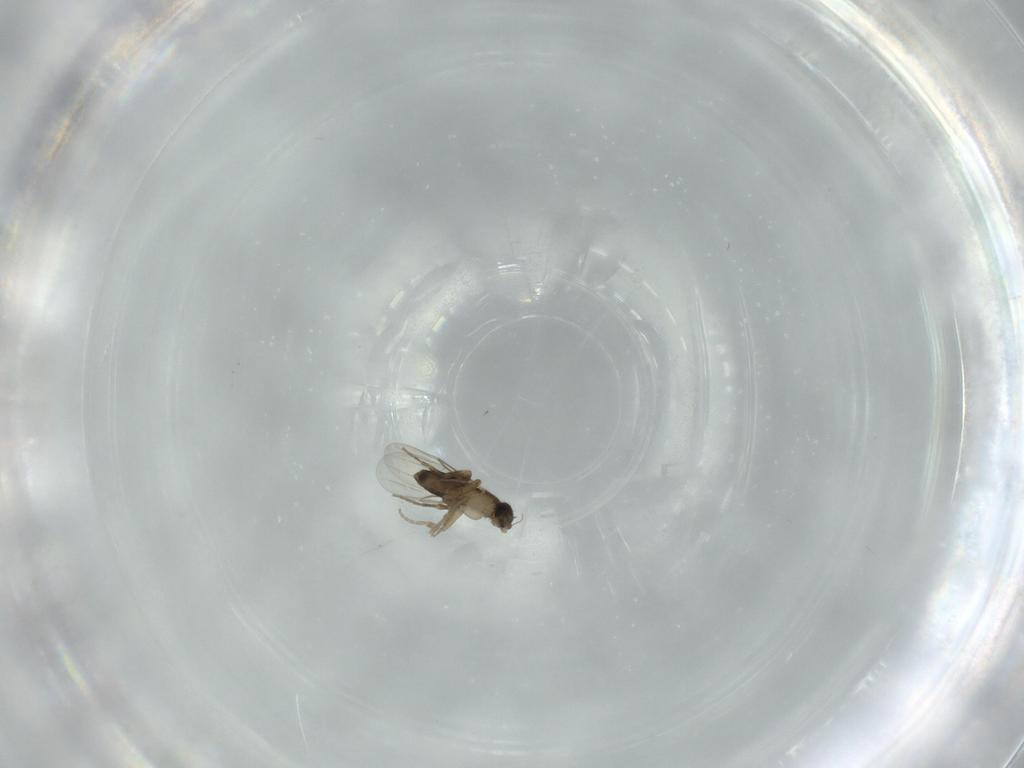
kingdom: Animalia
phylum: Arthropoda
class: Insecta
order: Diptera
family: Phoridae
